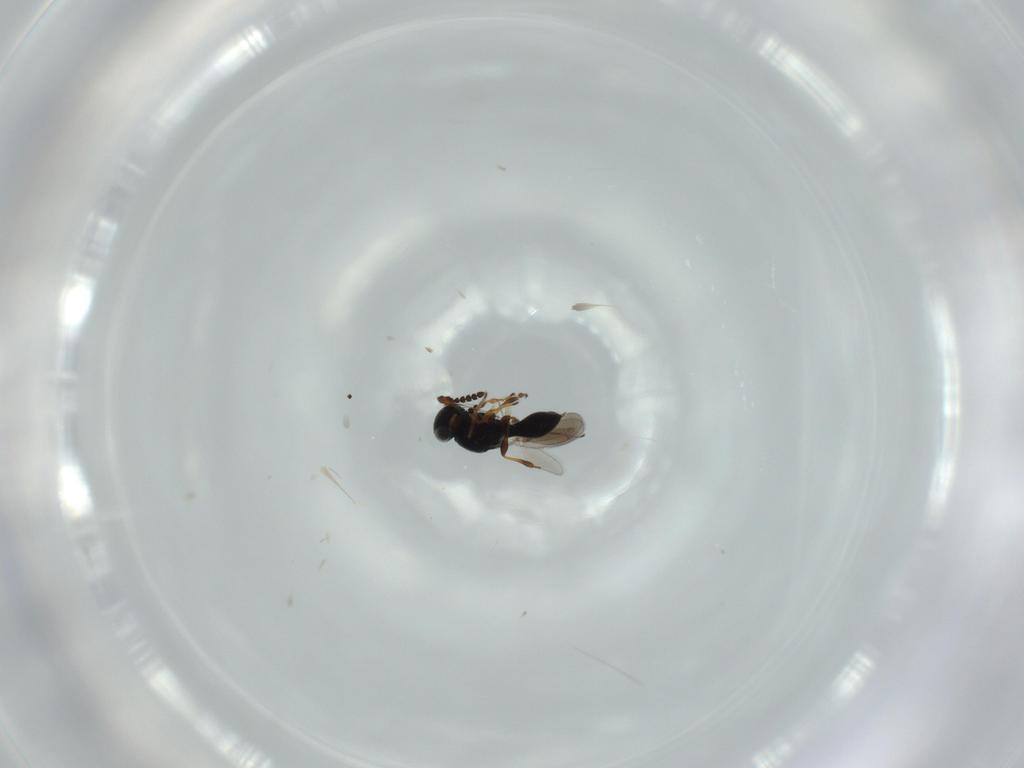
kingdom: Animalia
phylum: Arthropoda
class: Insecta
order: Hymenoptera
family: Platygastridae
